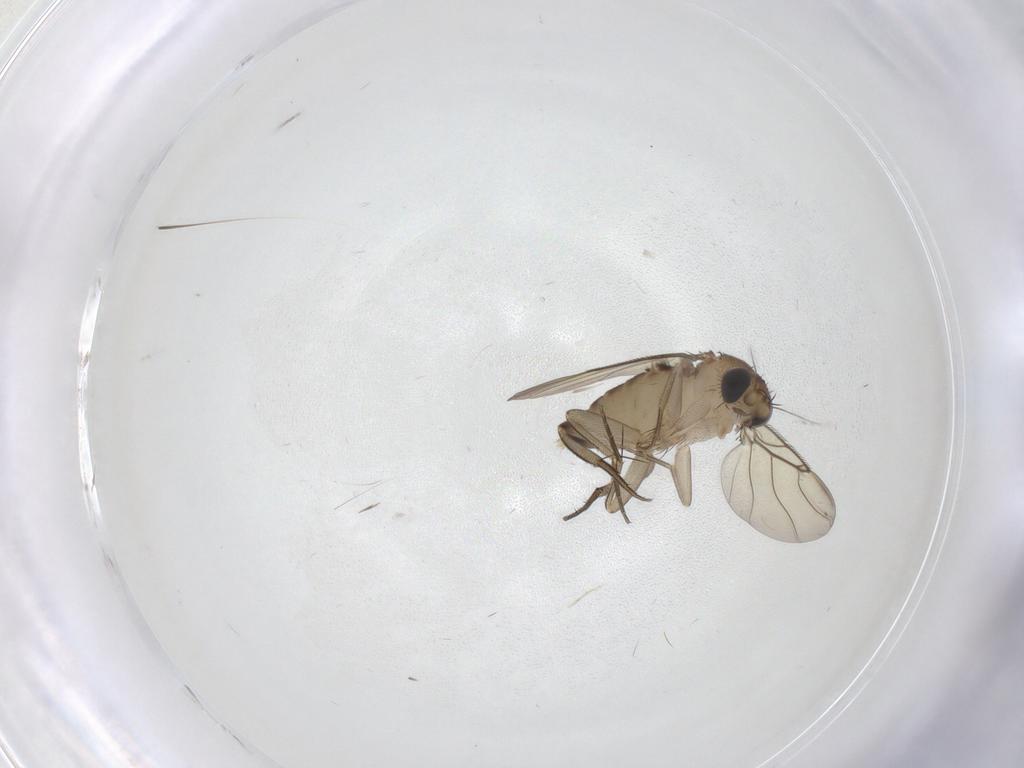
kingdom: Animalia
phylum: Arthropoda
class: Insecta
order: Diptera
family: Phoridae
